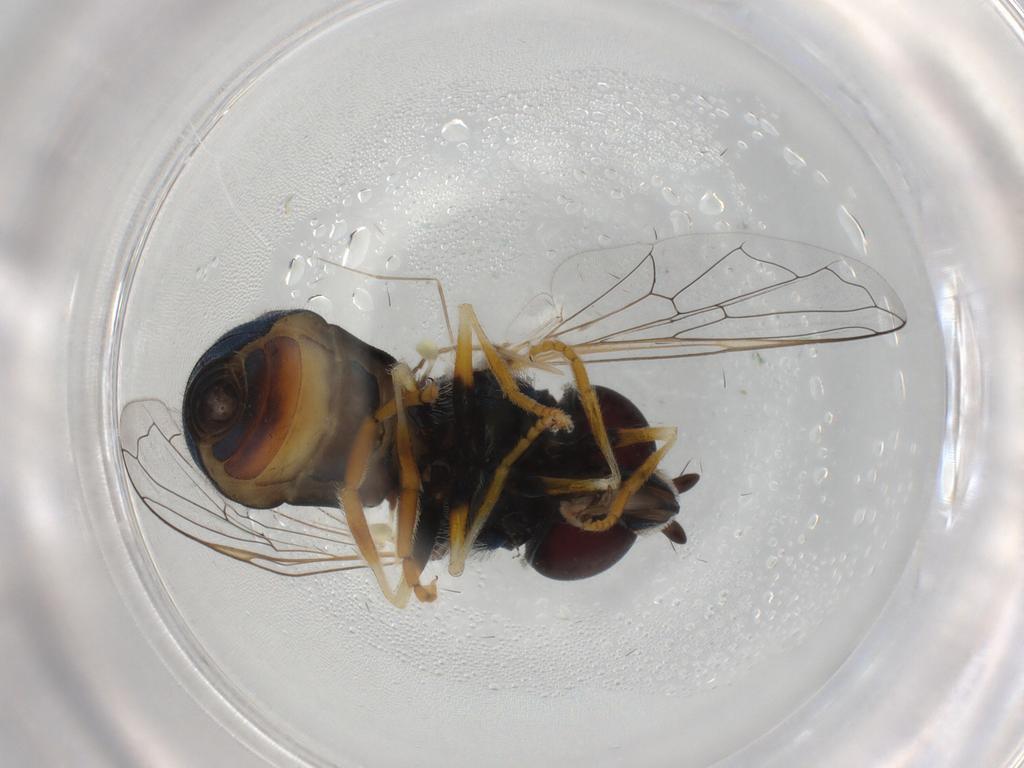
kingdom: Animalia
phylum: Arthropoda
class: Insecta
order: Diptera
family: Syrphidae
